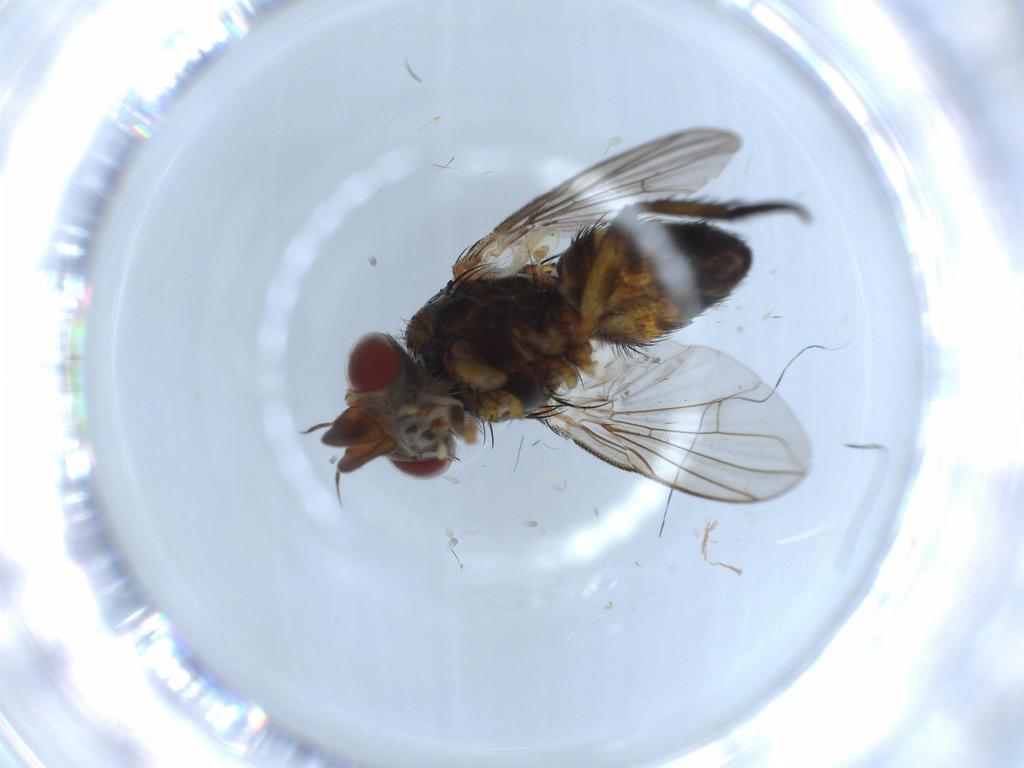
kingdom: Animalia
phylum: Arthropoda
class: Insecta
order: Diptera
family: Tachinidae
